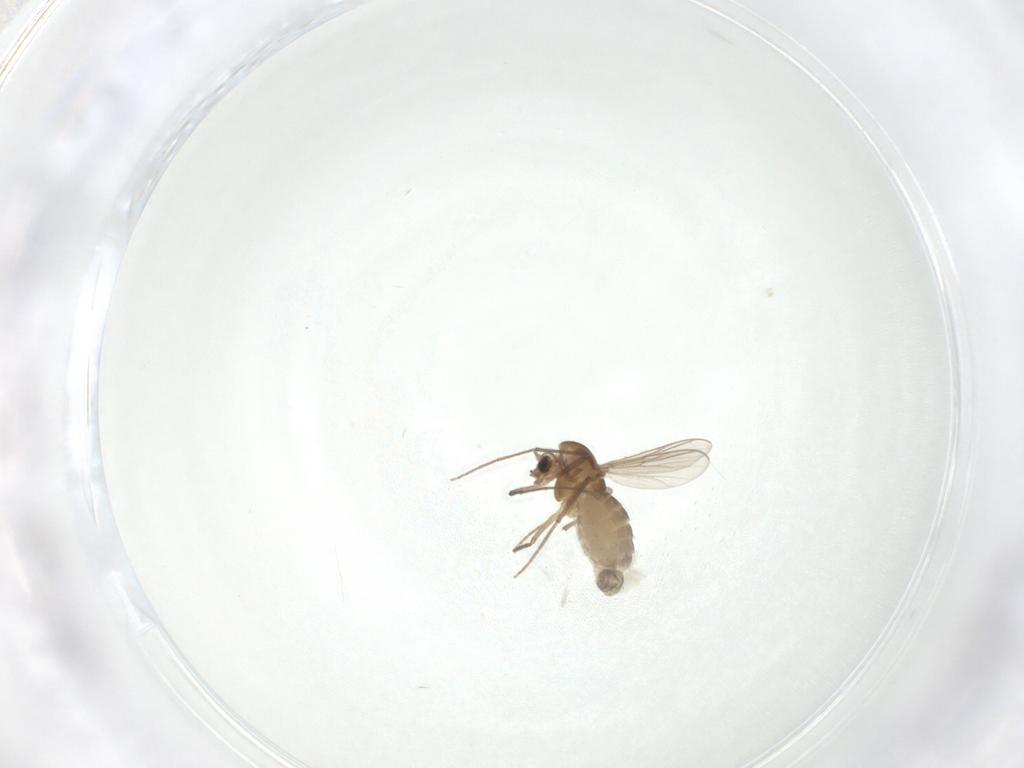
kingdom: Animalia
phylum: Arthropoda
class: Insecta
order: Diptera
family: Chironomidae
